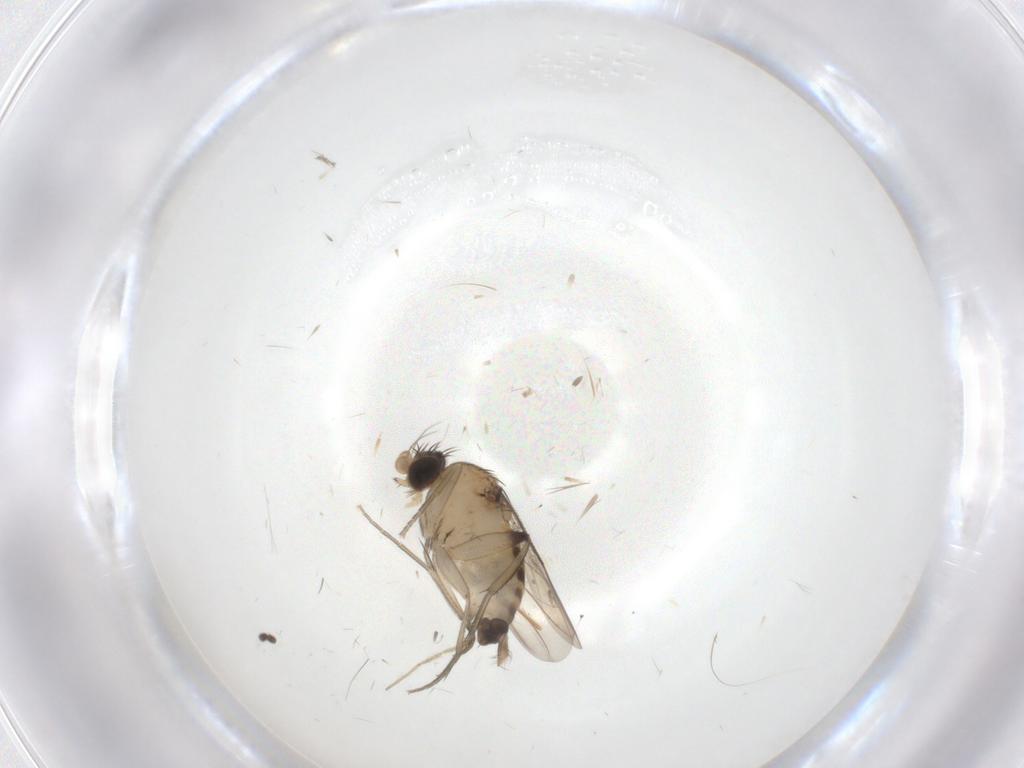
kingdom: Animalia
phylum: Arthropoda
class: Insecta
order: Diptera
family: Phoridae
